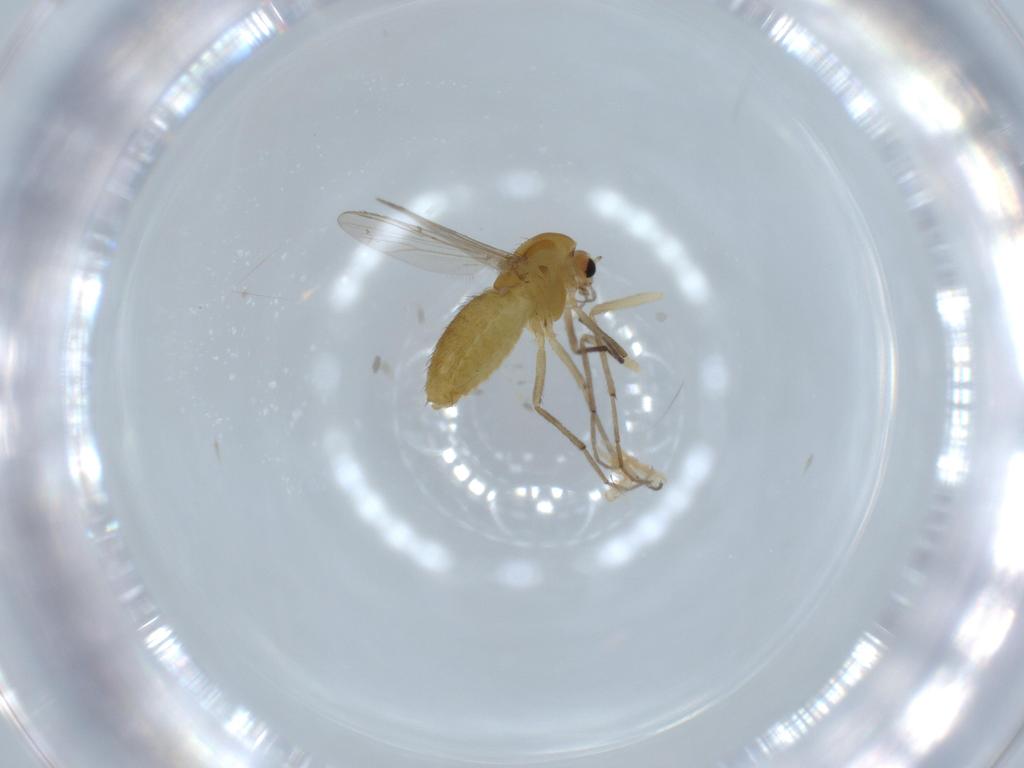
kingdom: Animalia
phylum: Arthropoda
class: Insecta
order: Diptera
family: Chironomidae
